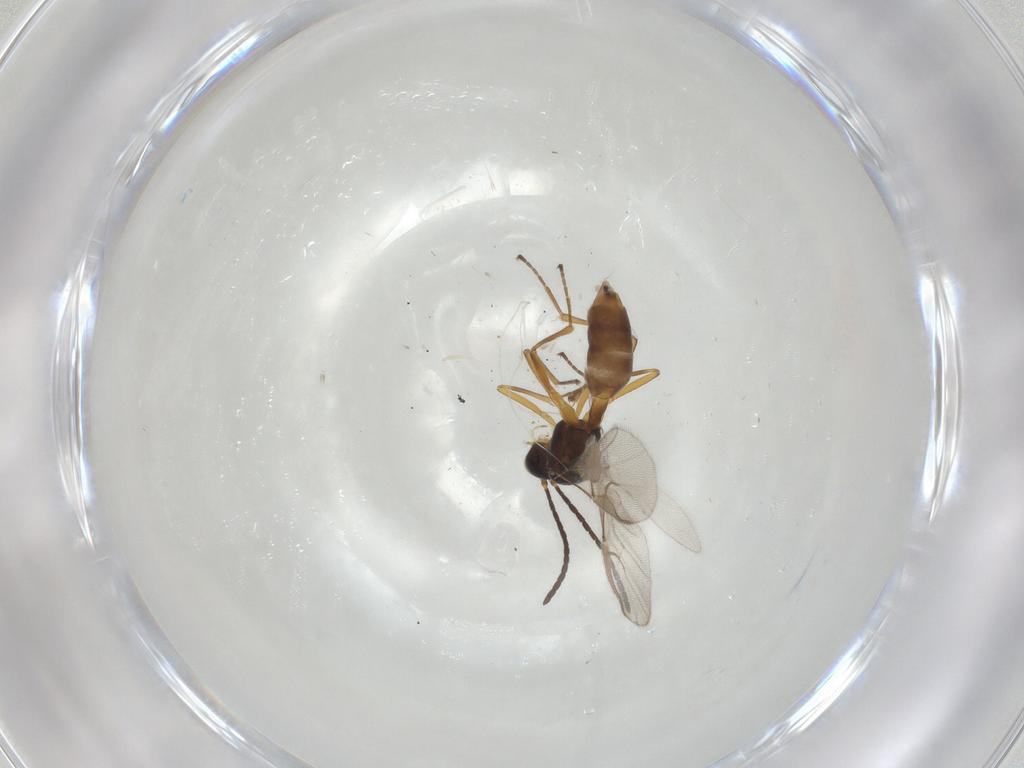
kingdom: Animalia
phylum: Arthropoda
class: Insecta
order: Hymenoptera
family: Braconidae
